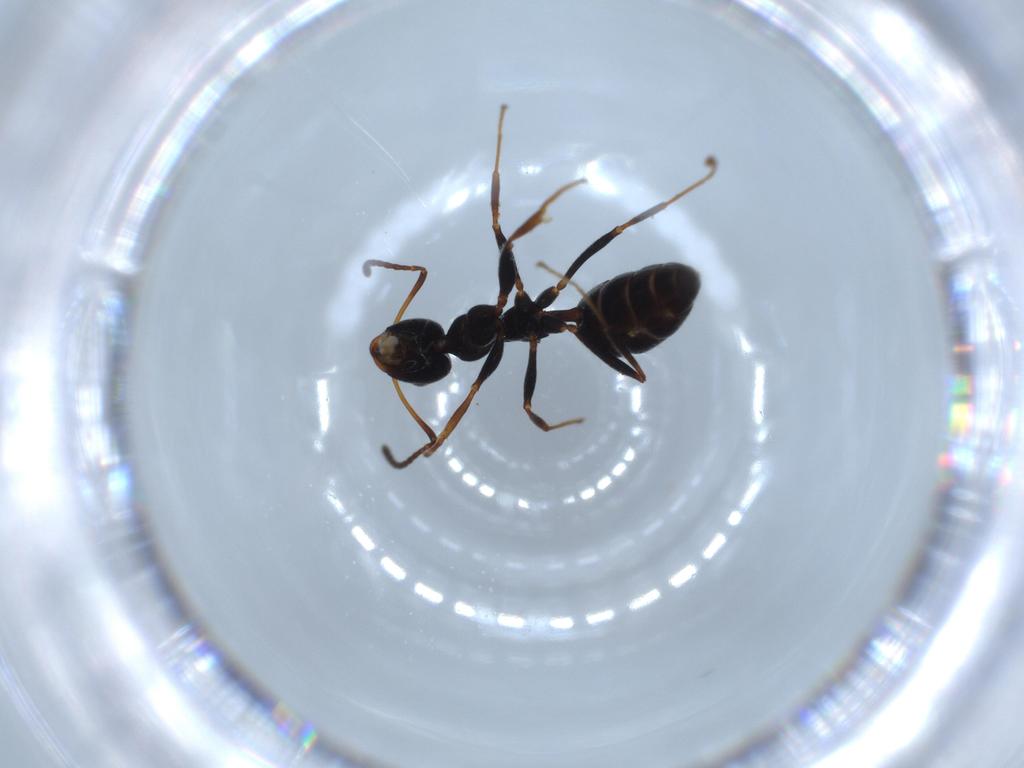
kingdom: Animalia
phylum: Arthropoda
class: Insecta
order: Hymenoptera
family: Formicidae
